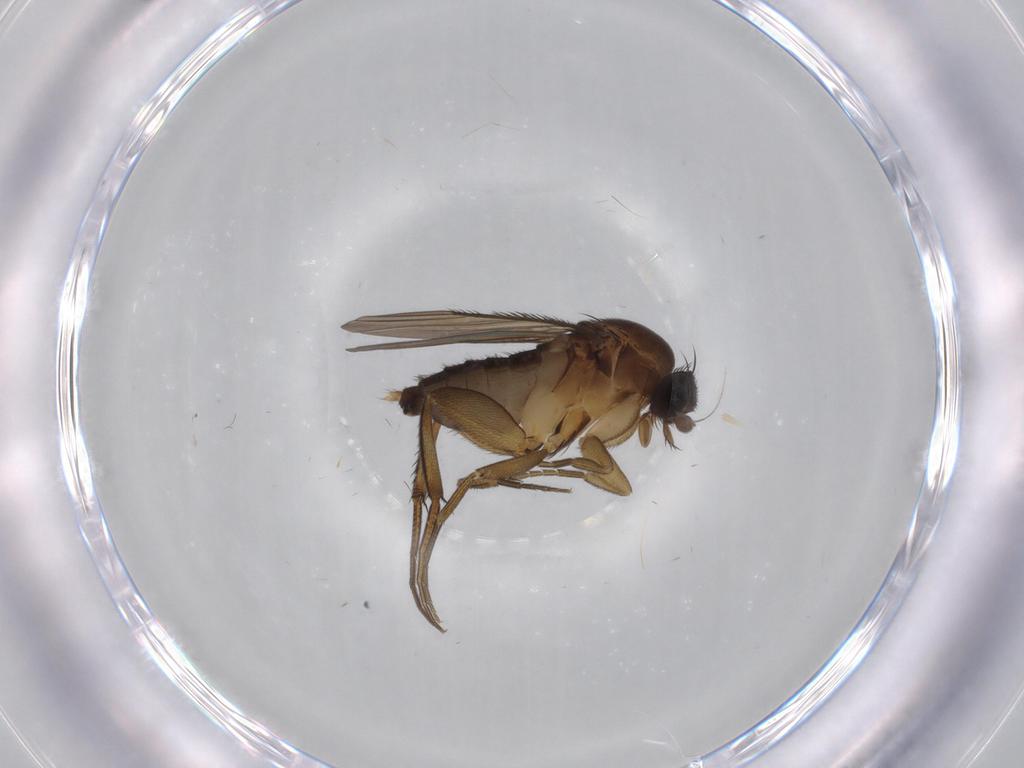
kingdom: Animalia
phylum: Arthropoda
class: Insecta
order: Diptera
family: Phoridae
